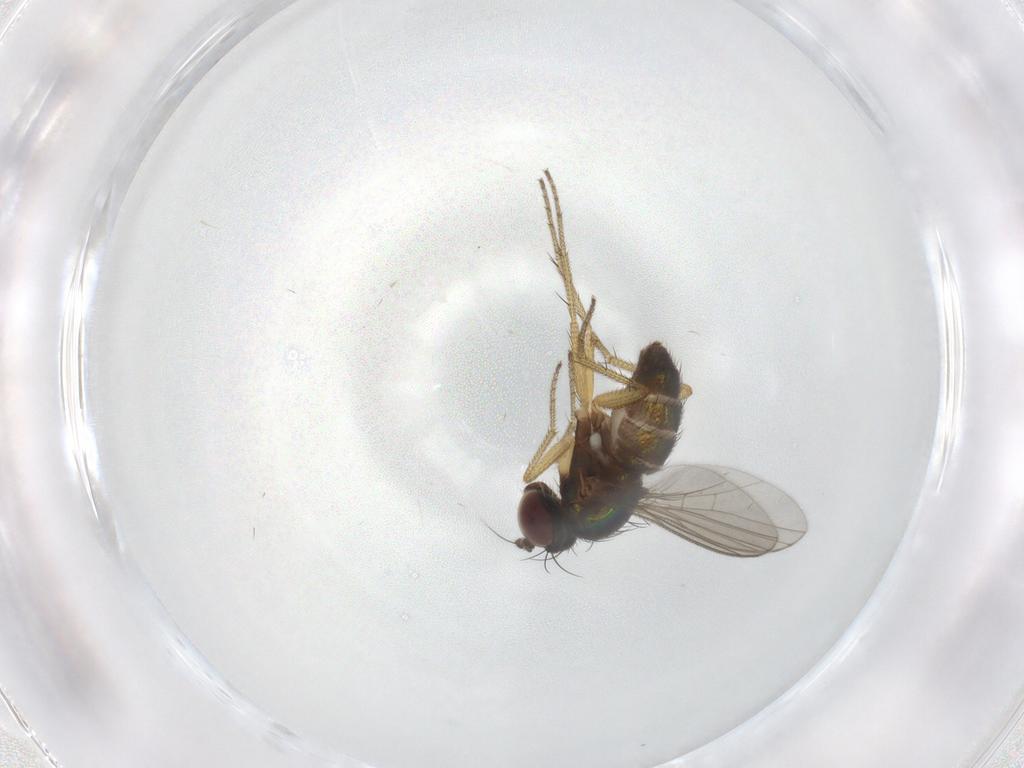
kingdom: Animalia
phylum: Arthropoda
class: Insecta
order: Diptera
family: Dolichopodidae
